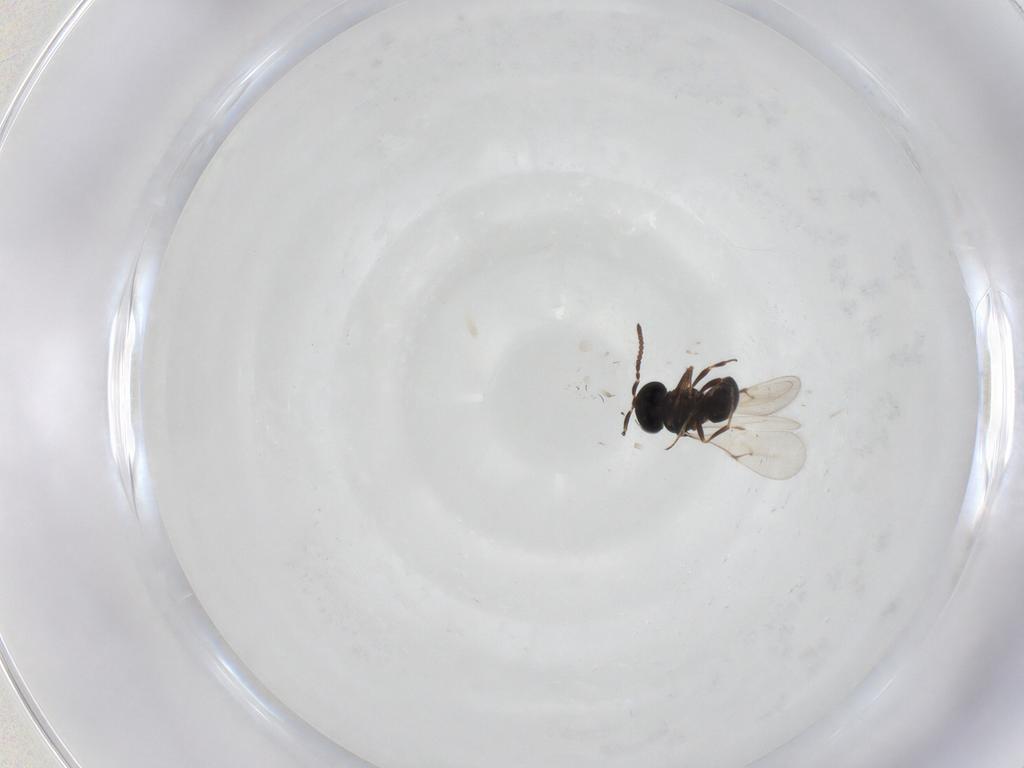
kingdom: Animalia
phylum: Arthropoda
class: Insecta
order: Hymenoptera
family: Scelionidae
